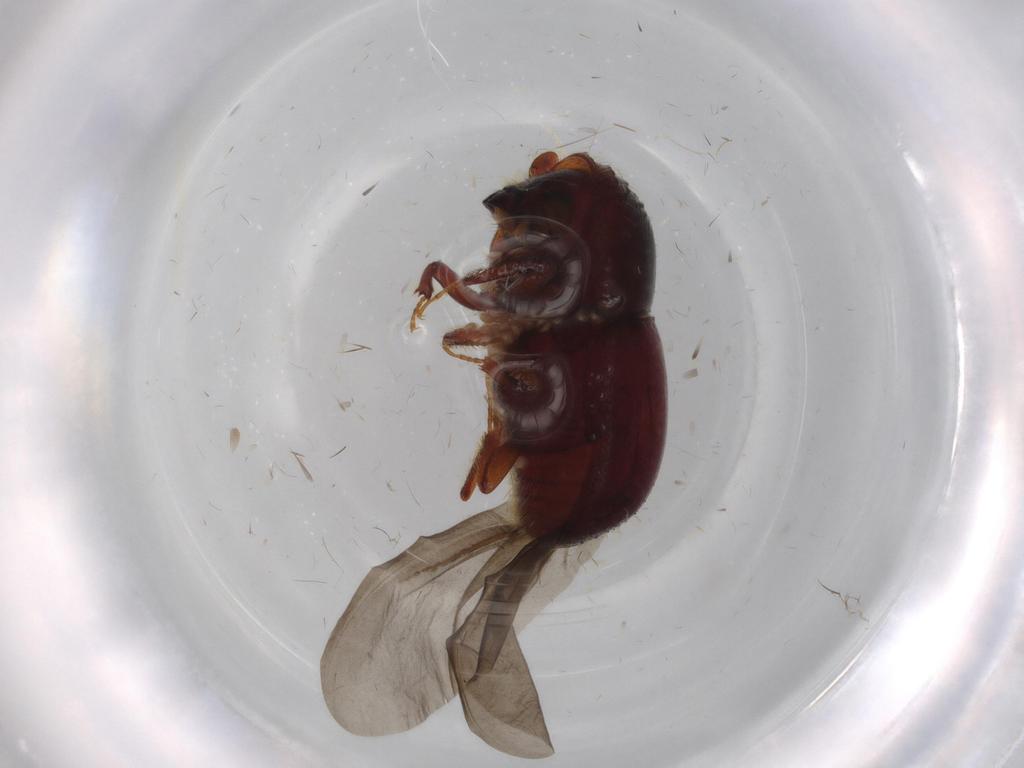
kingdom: Animalia
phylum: Arthropoda
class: Insecta
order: Coleoptera
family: Curculionidae
